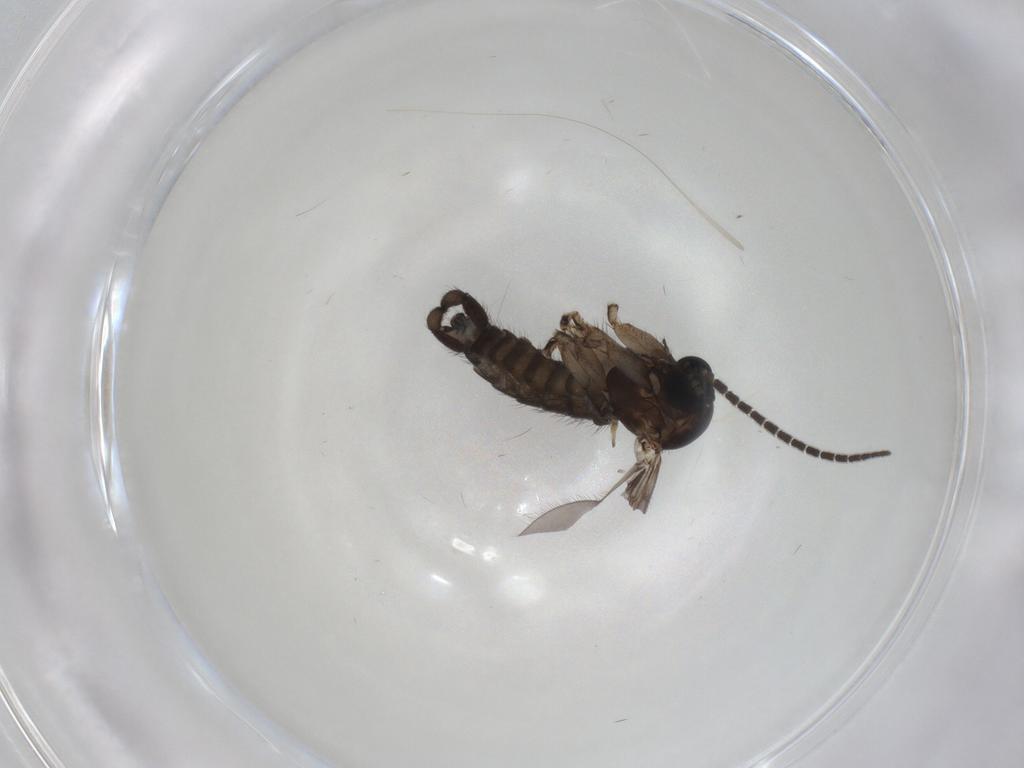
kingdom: Animalia
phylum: Arthropoda
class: Insecta
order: Diptera
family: Sciaridae
